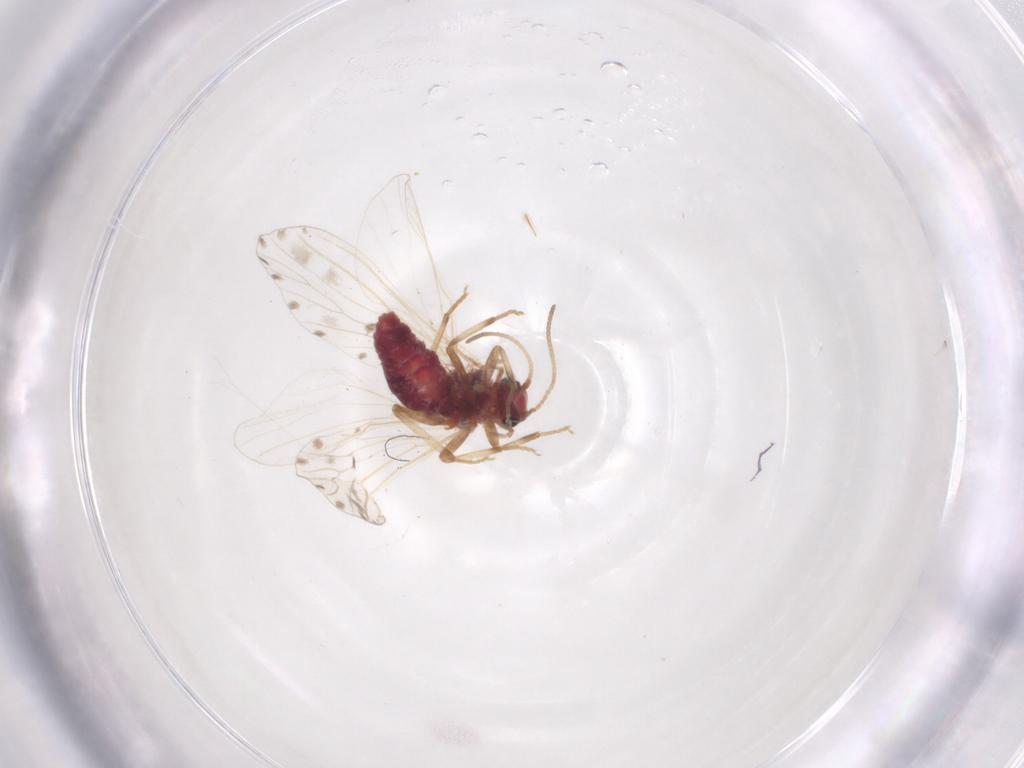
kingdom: Animalia
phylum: Arthropoda
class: Insecta
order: Neuroptera
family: Coniopterygidae
